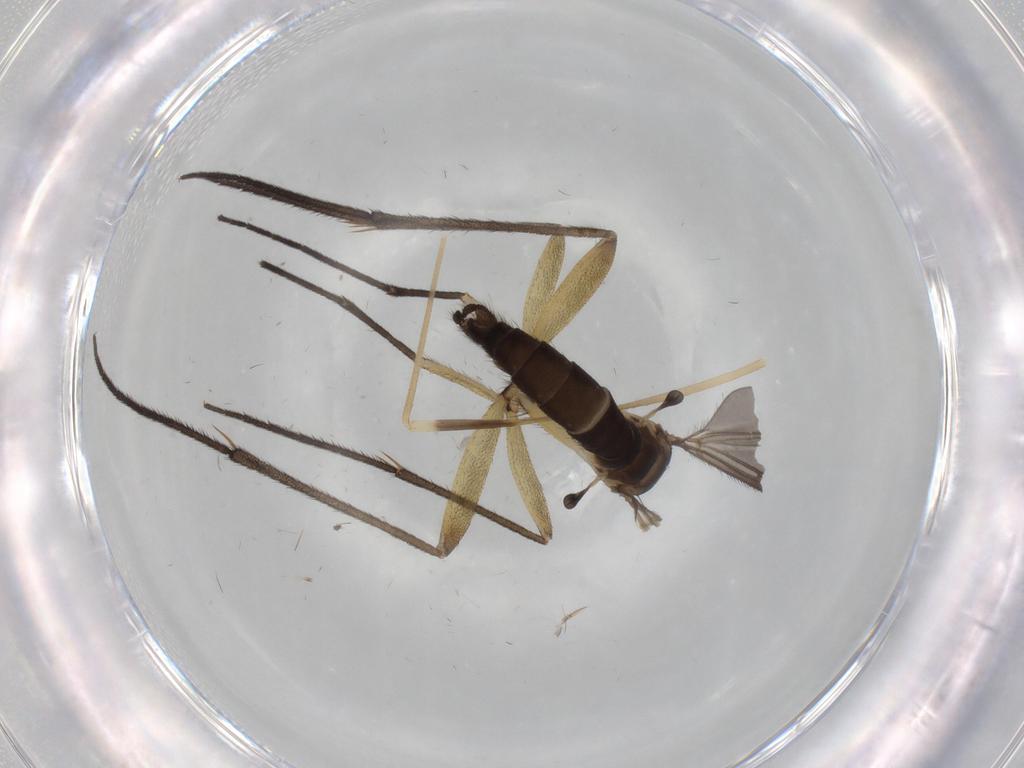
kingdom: Animalia
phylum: Arthropoda
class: Insecta
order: Diptera
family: Sciaridae
